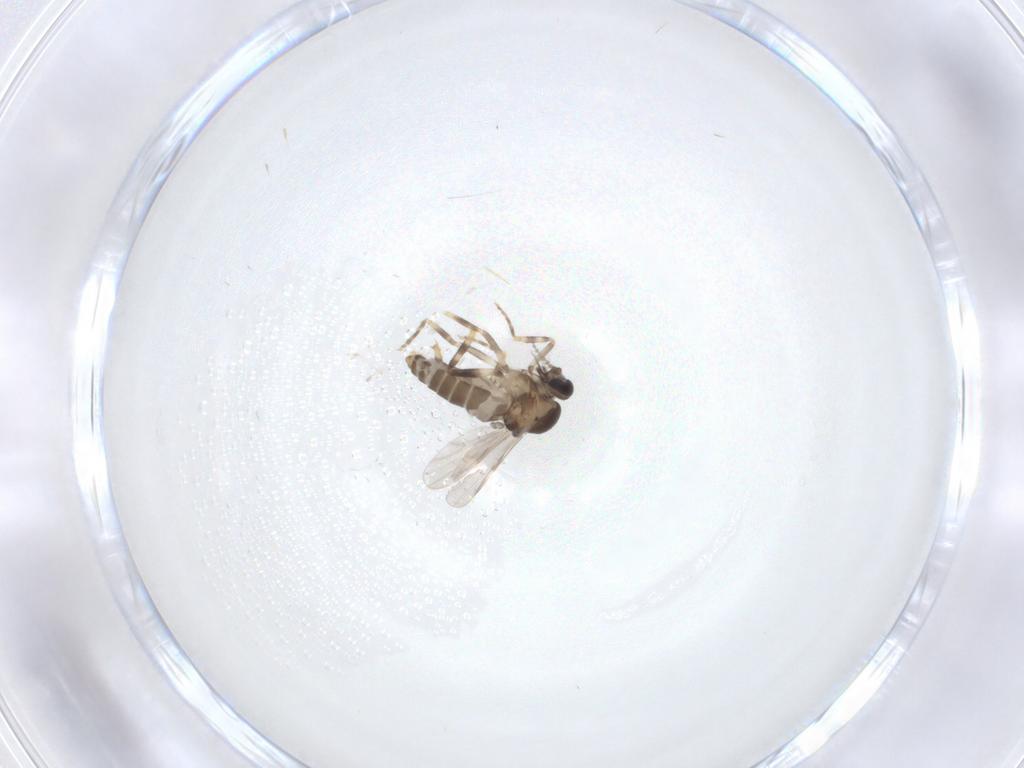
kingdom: Animalia
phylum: Arthropoda
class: Insecta
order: Diptera
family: Ceratopogonidae
